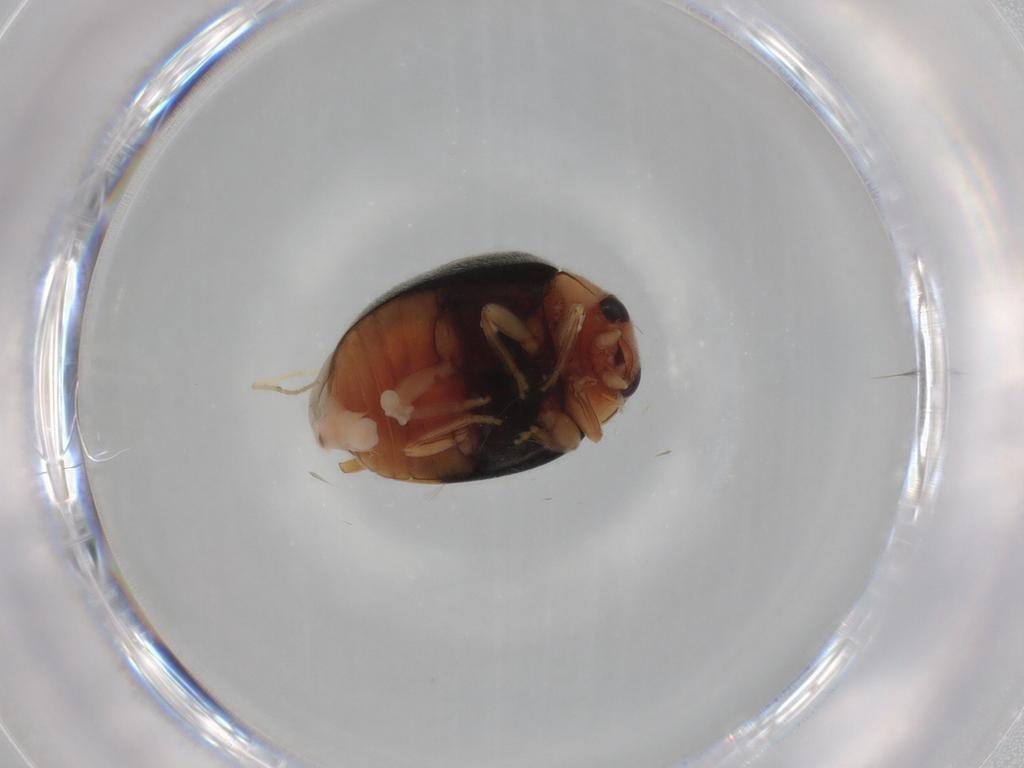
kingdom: Animalia
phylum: Arthropoda
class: Insecta
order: Coleoptera
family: Coccinellidae
